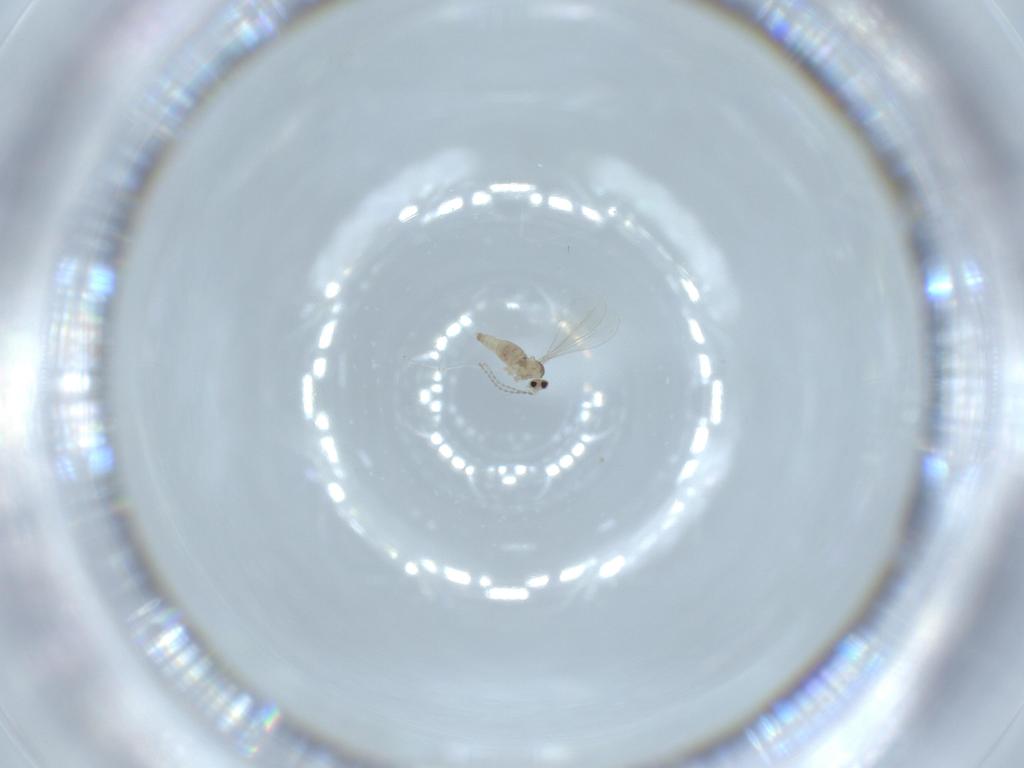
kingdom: Animalia
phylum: Arthropoda
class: Insecta
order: Diptera
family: Cecidomyiidae
